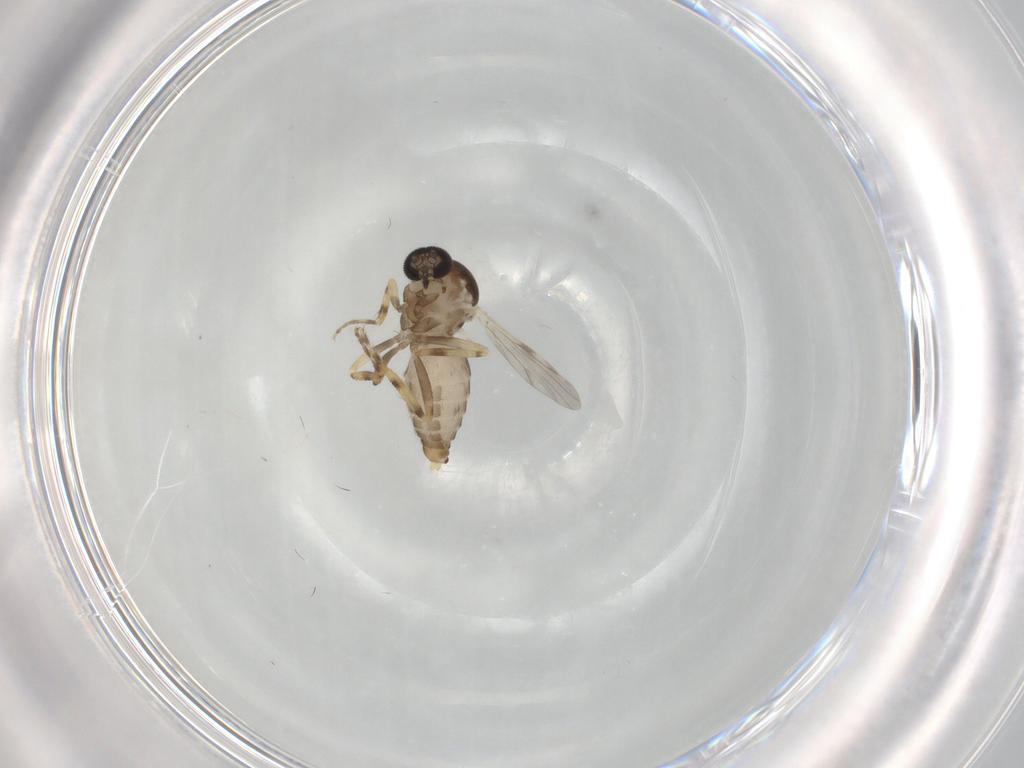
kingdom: Animalia
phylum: Arthropoda
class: Insecta
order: Diptera
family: Ceratopogonidae
